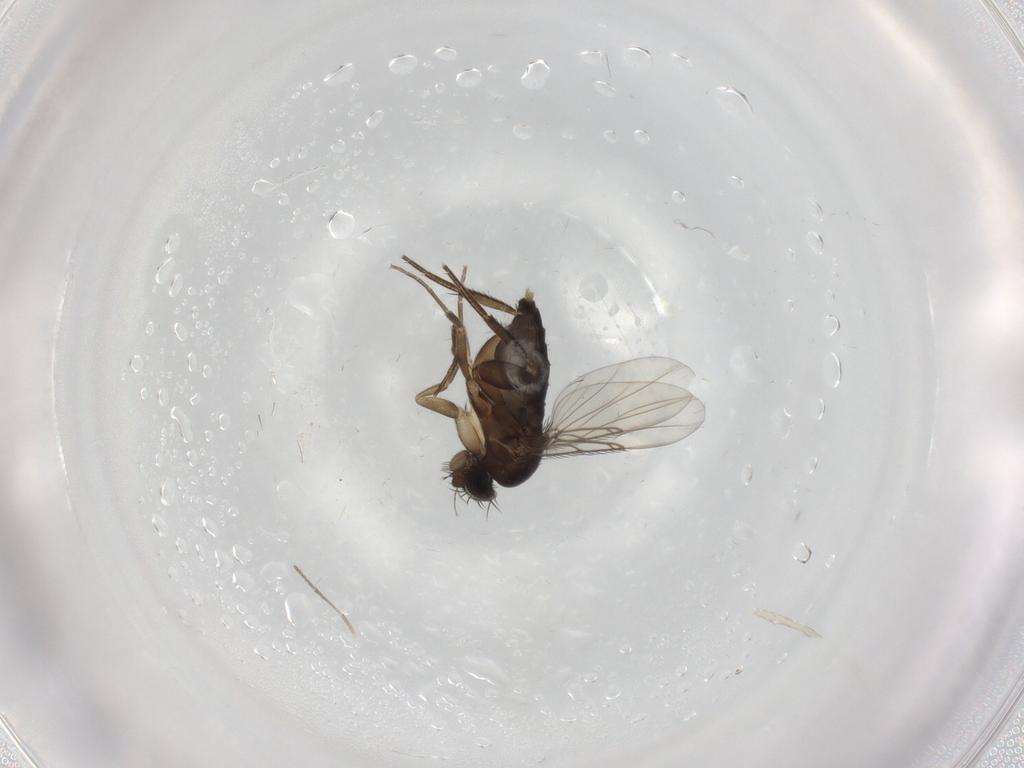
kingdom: Animalia
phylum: Arthropoda
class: Insecta
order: Diptera
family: Phoridae
